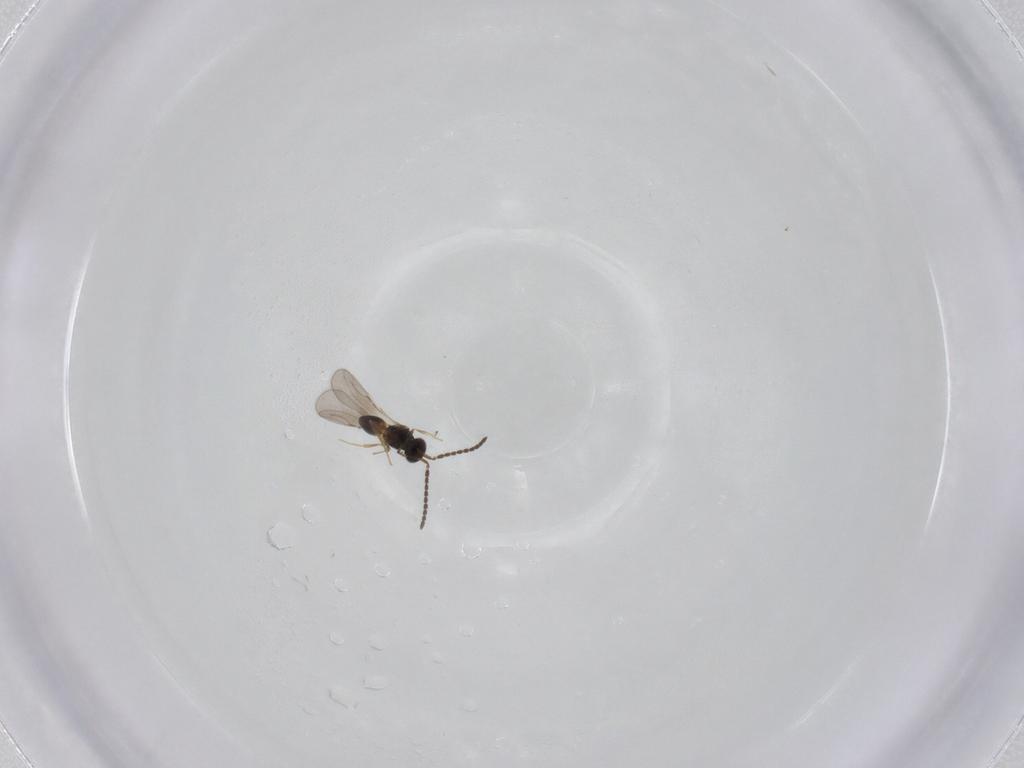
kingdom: Animalia
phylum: Arthropoda
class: Insecta
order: Hymenoptera
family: Ceraphronidae
